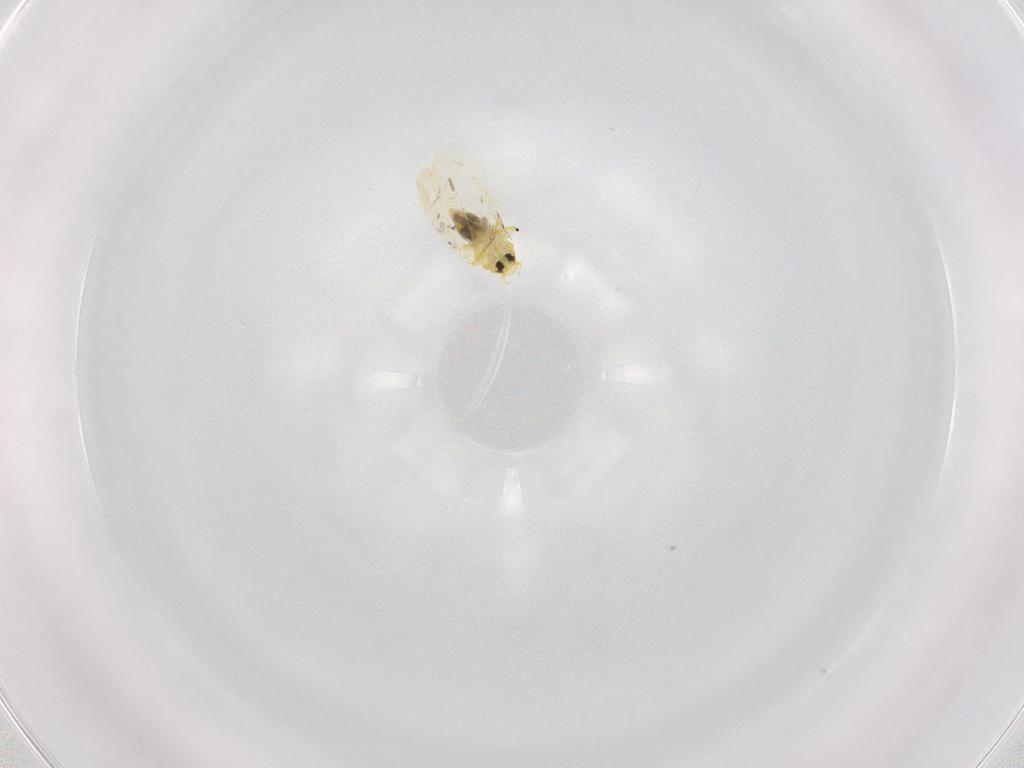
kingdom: Animalia
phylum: Arthropoda
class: Insecta
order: Hemiptera
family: Aleyrodidae
